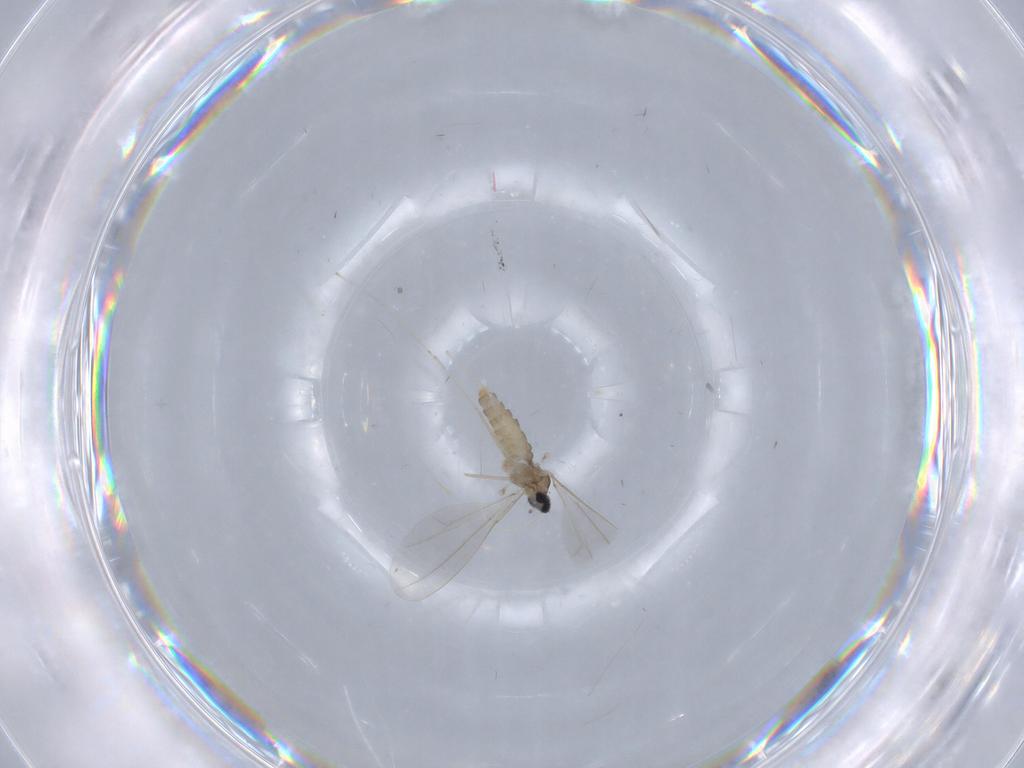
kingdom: Animalia
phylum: Arthropoda
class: Insecta
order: Diptera
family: Cecidomyiidae
